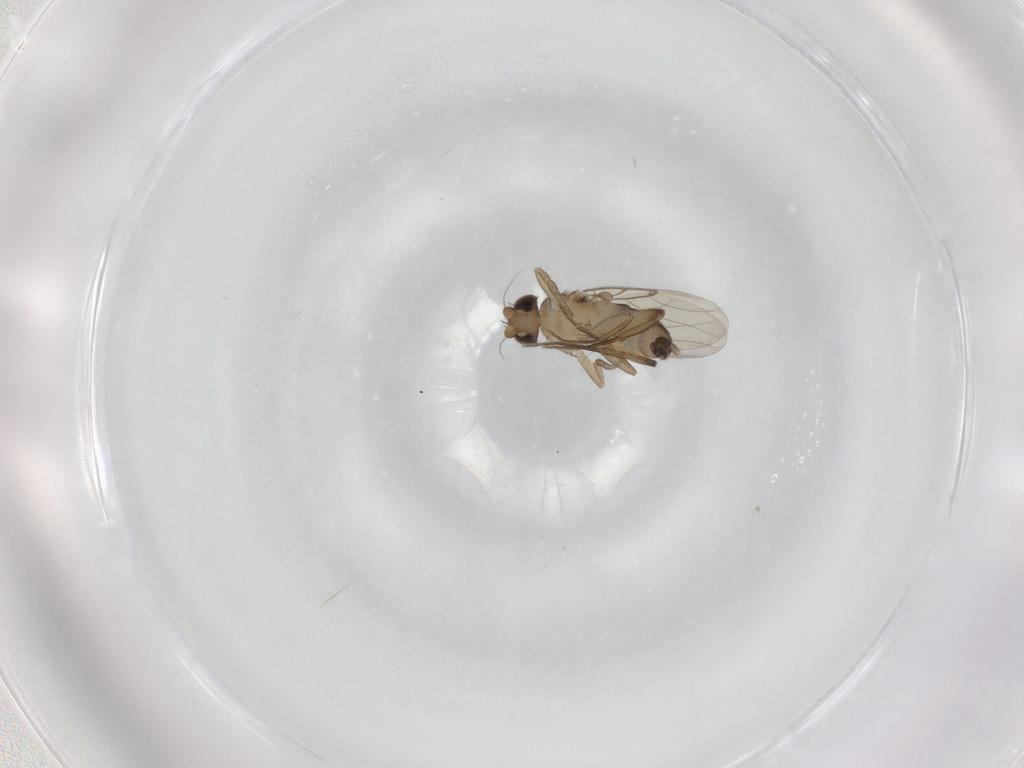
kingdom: Animalia
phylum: Arthropoda
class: Insecta
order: Diptera
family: Phoridae
